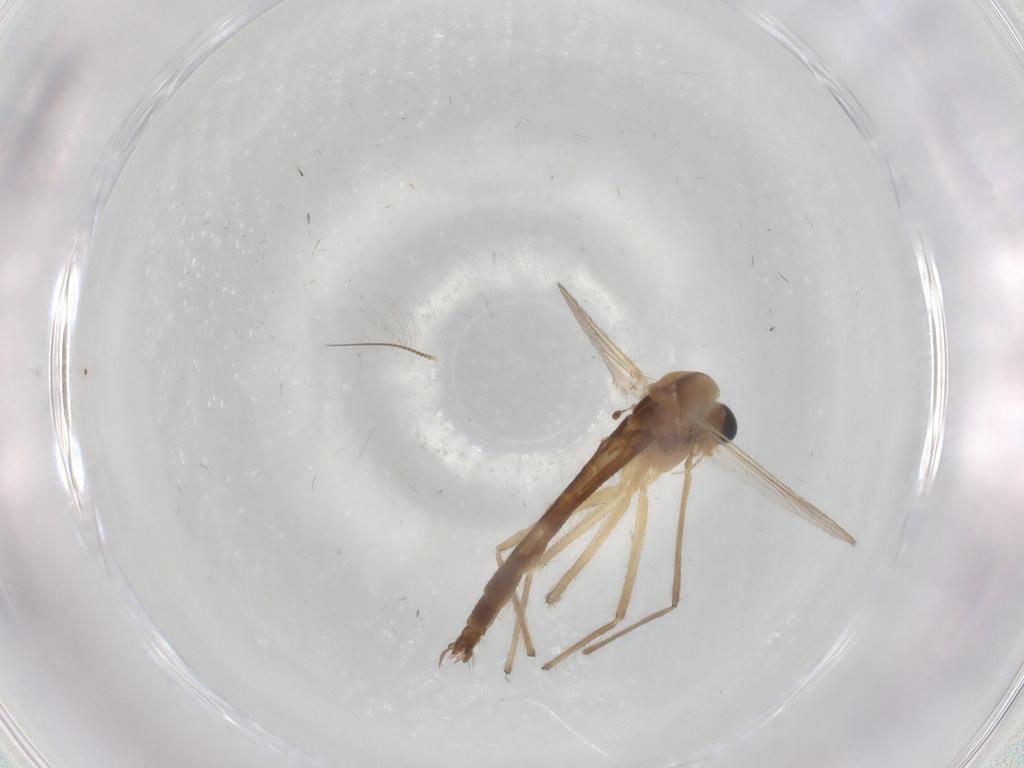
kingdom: Animalia
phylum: Arthropoda
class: Insecta
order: Diptera
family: Chironomidae
